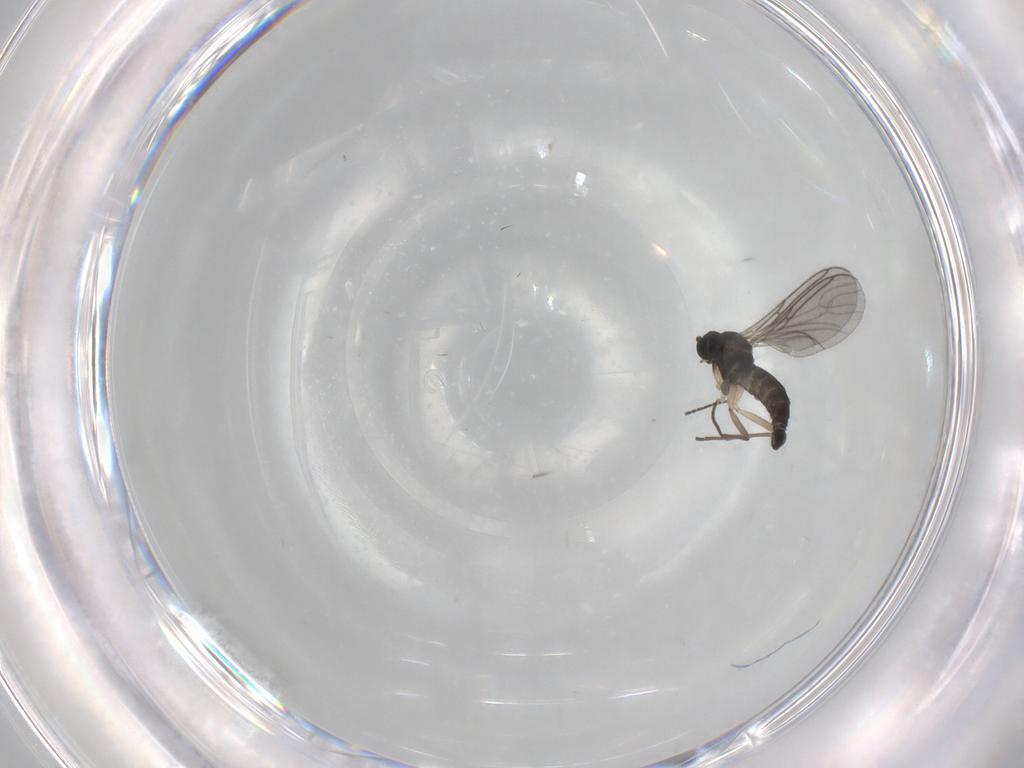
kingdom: Animalia
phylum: Arthropoda
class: Insecta
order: Diptera
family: Sciaridae
